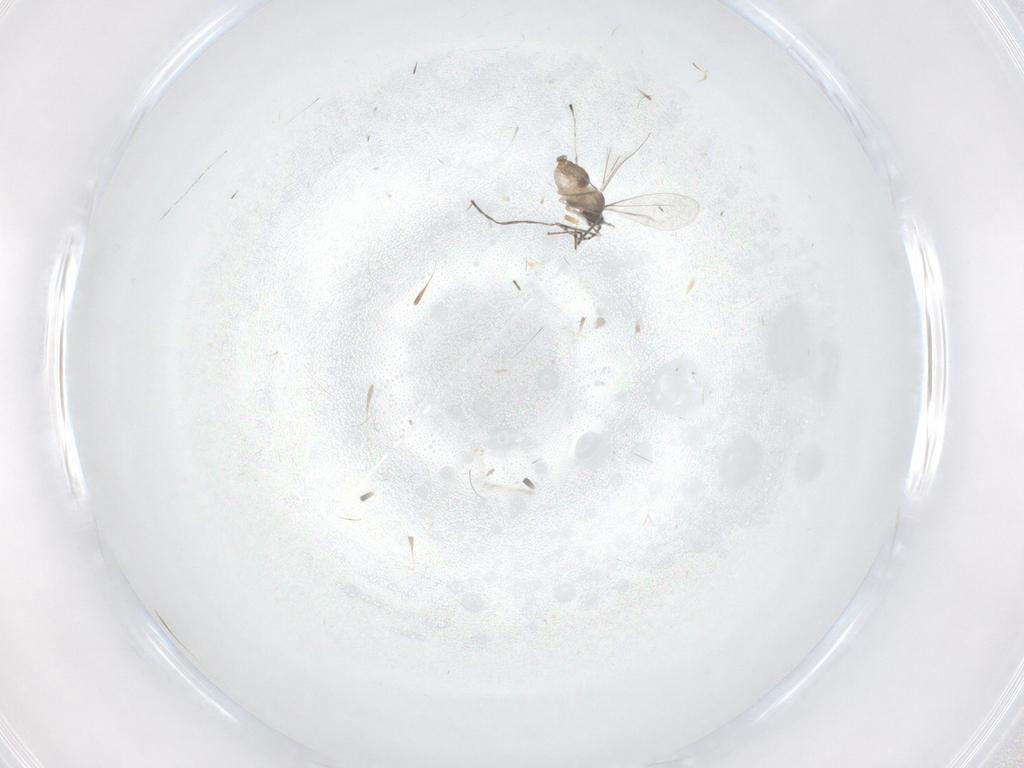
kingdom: Animalia
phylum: Arthropoda
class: Insecta
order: Diptera
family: Cecidomyiidae
